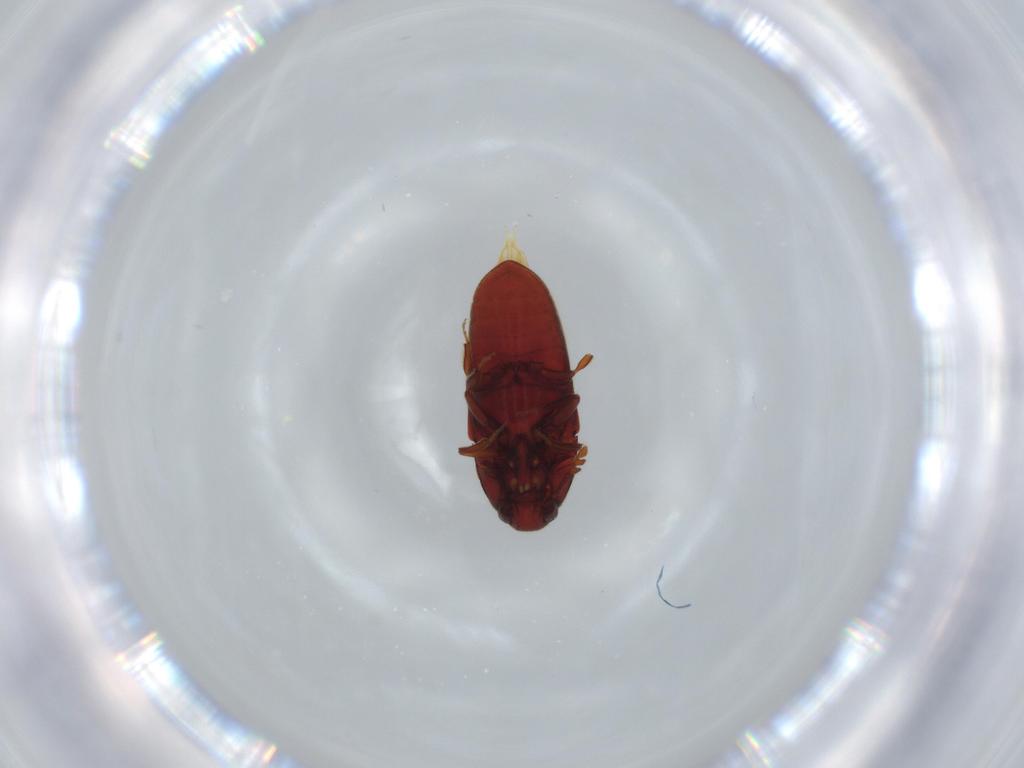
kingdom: Animalia
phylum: Arthropoda
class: Insecta
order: Coleoptera
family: Throscidae
